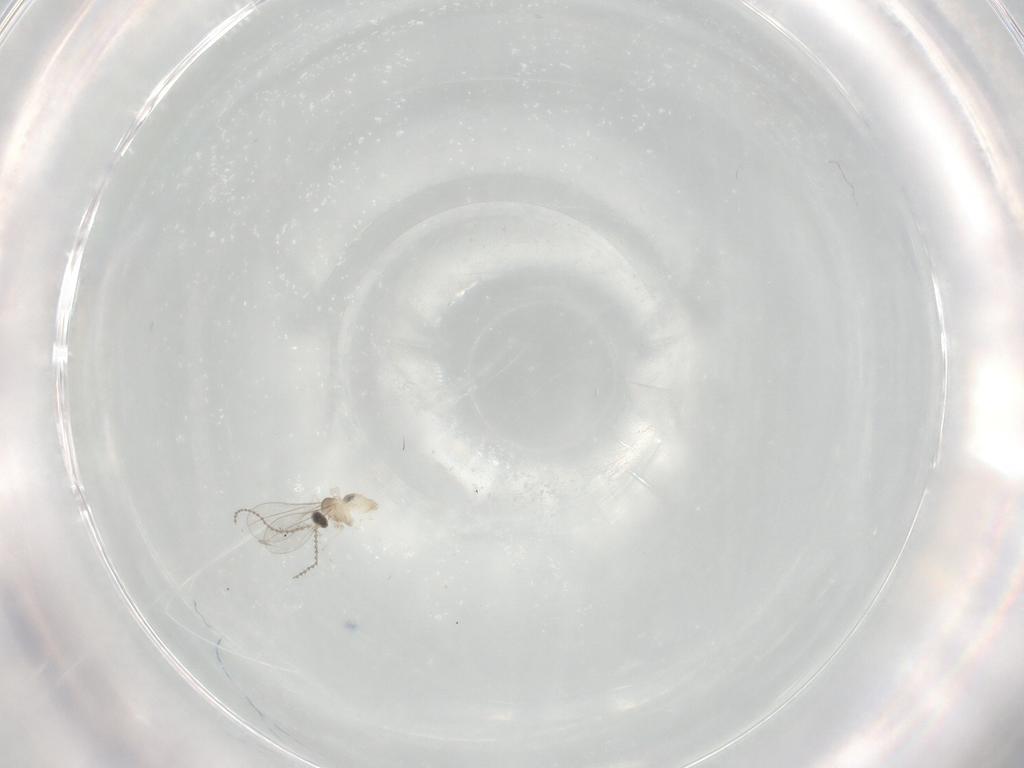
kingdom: Animalia
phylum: Arthropoda
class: Insecta
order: Diptera
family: Cecidomyiidae
